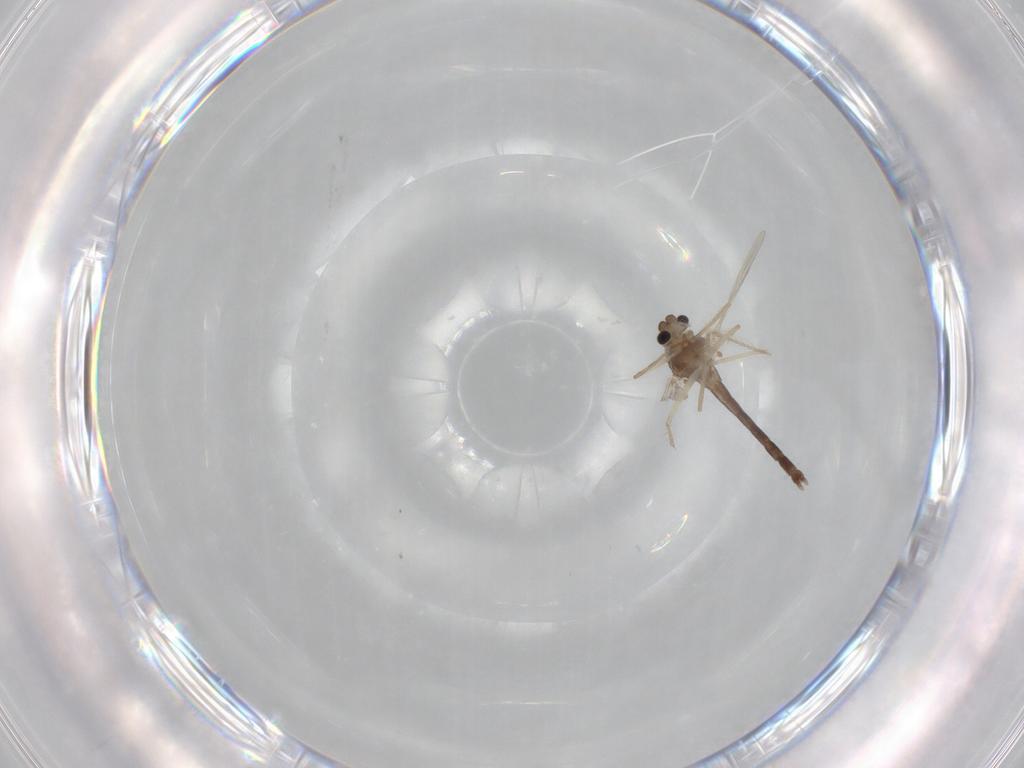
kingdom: Animalia
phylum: Arthropoda
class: Insecta
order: Diptera
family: Chironomidae
